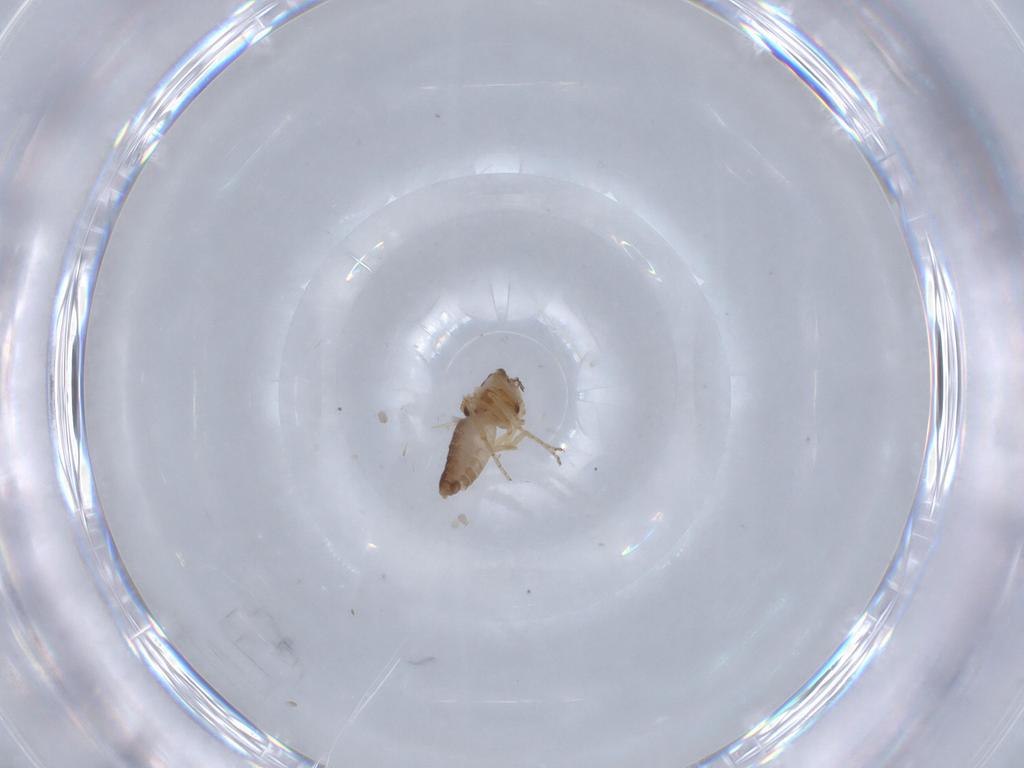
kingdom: Animalia
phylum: Arthropoda
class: Insecta
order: Diptera
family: Ceratopogonidae
